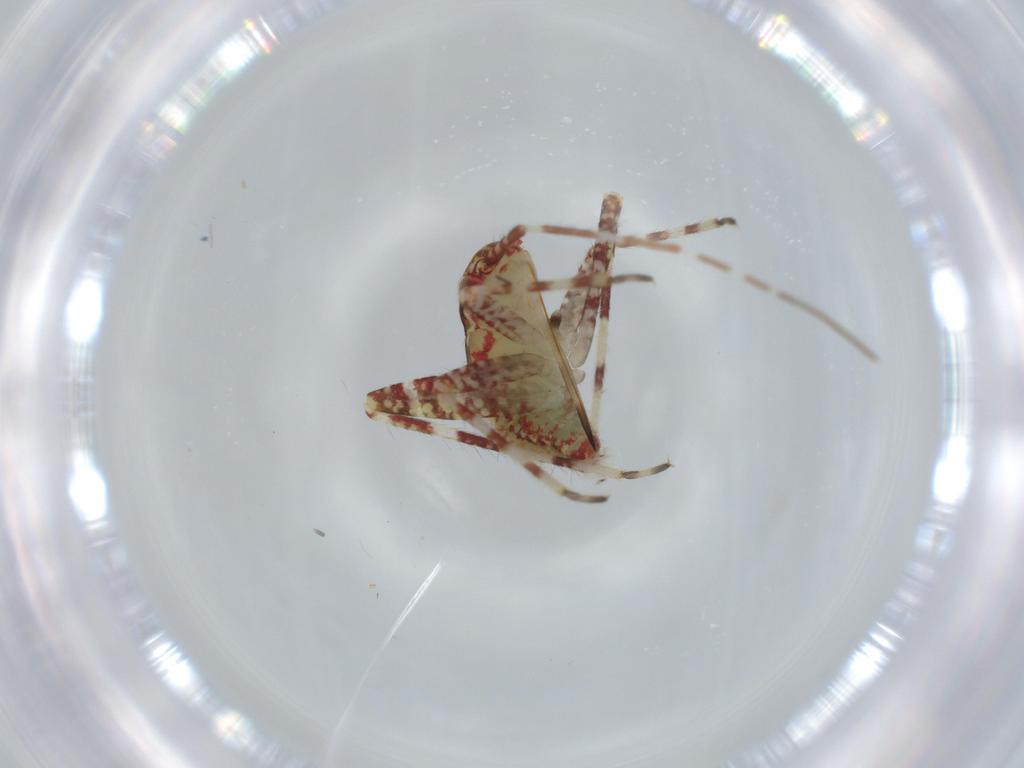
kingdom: Animalia
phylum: Arthropoda
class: Insecta
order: Hemiptera
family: Miridae
